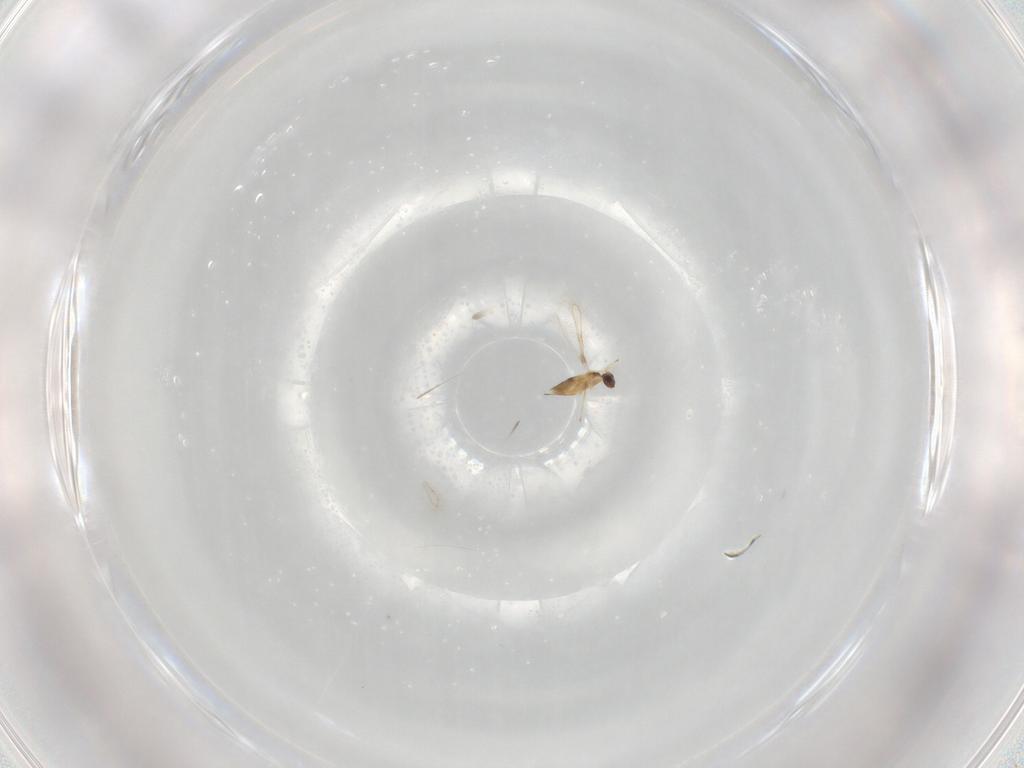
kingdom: Animalia
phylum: Arthropoda
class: Insecta
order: Hymenoptera
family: Mymaridae
